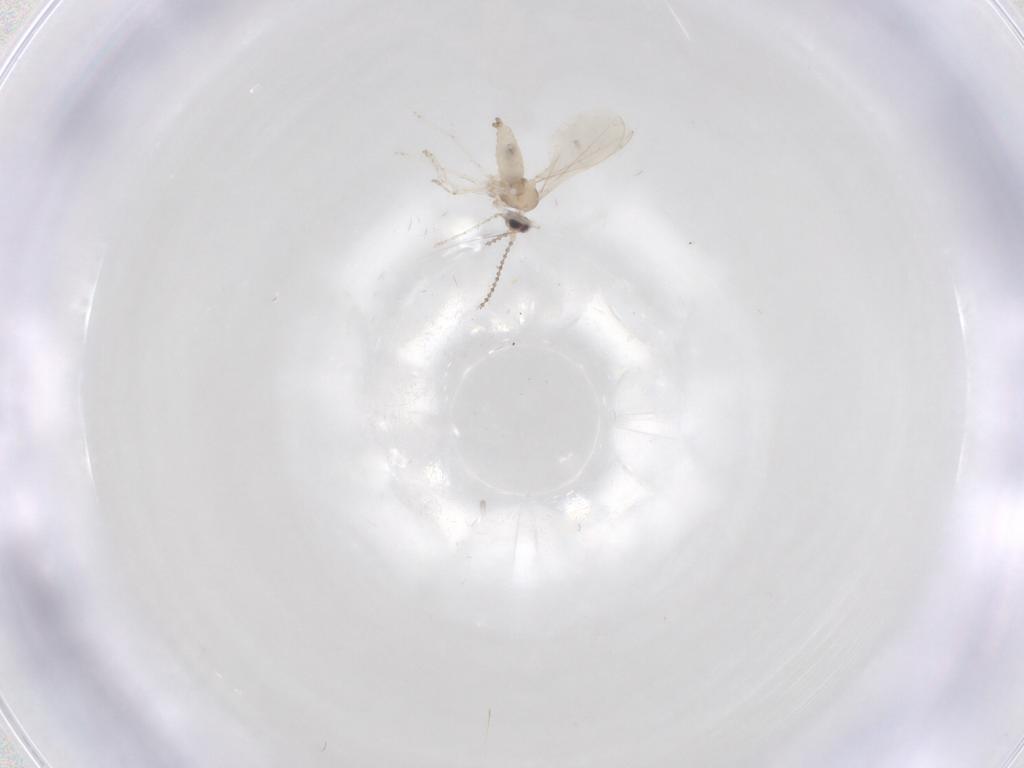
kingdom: Animalia
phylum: Arthropoda
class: Insecta
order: Diptera
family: Cecidomyiidae
